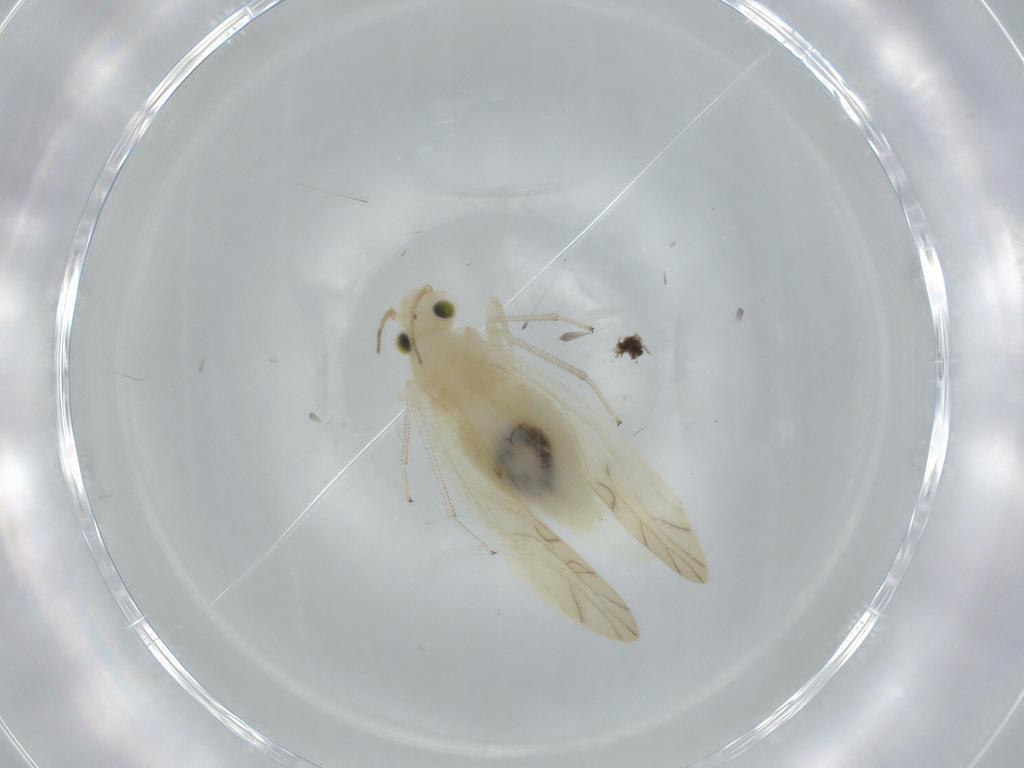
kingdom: Animalia
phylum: Arthropoda
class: Insecta
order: Psocodea
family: Caeciliusidae
